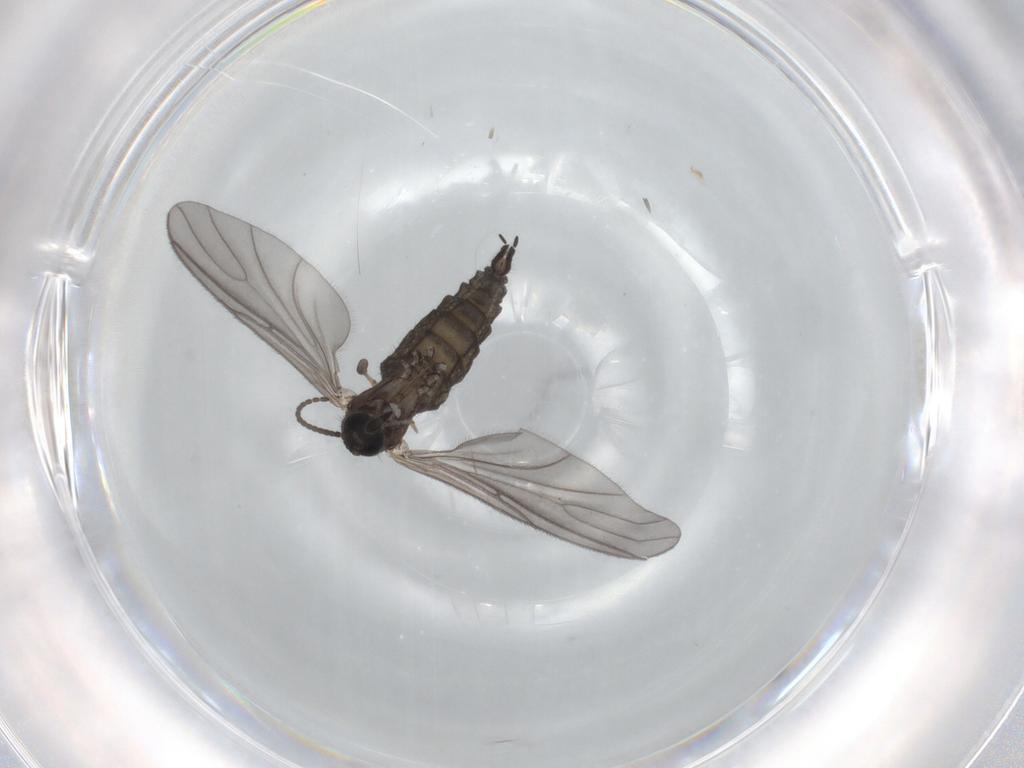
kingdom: Animalia
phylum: Arthropoda
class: Insecta
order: Diptera
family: Sciaridae
